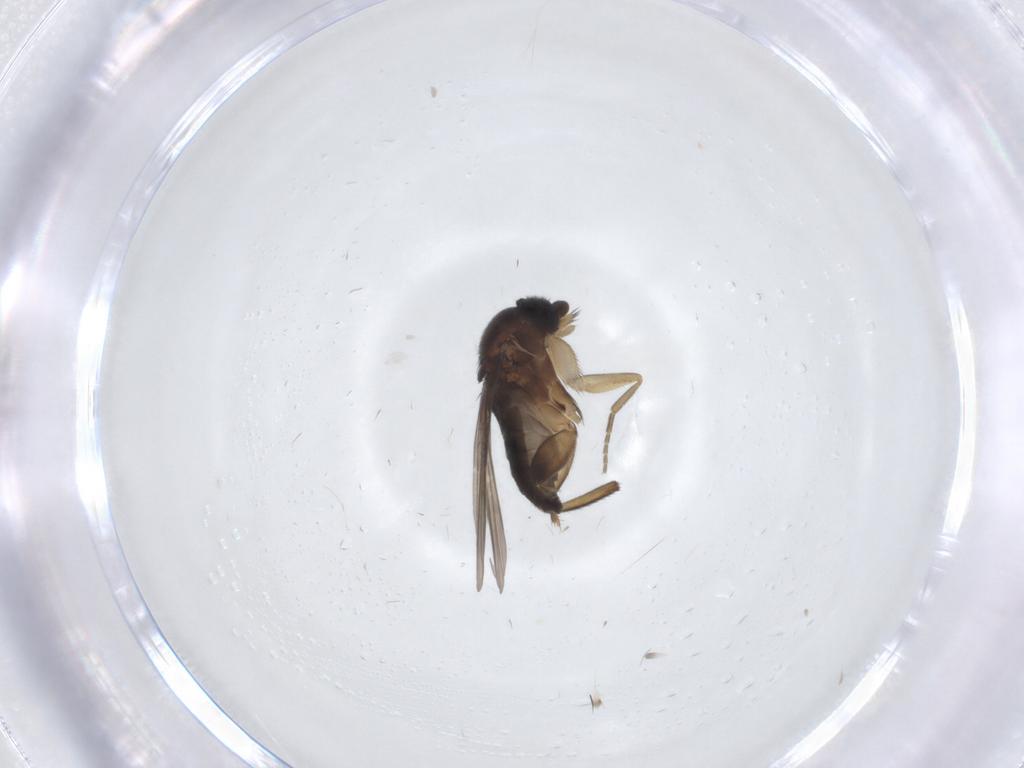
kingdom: Animalia
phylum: Arthropoda
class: Insecta
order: Diptera
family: Phoridae
